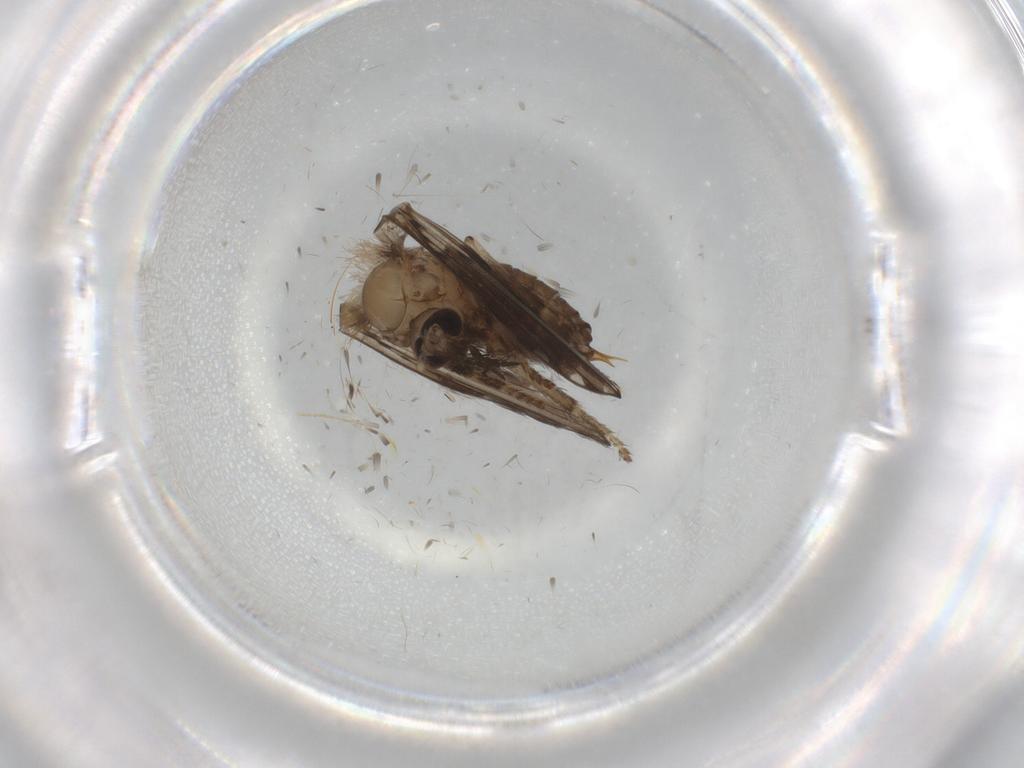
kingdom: Animalia
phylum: Arthropoda
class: Insecta
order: Diptera
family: Psychodidae
